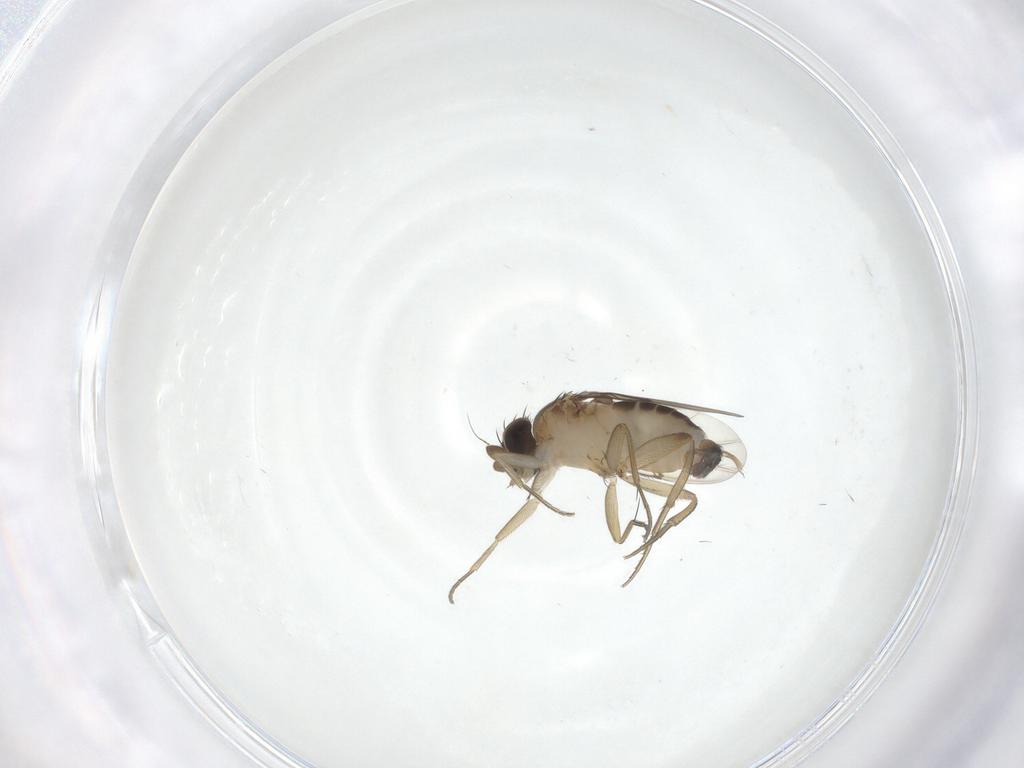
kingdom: Animalia
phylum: Arthropoda
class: Insecta
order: Diptera
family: Phoridae
